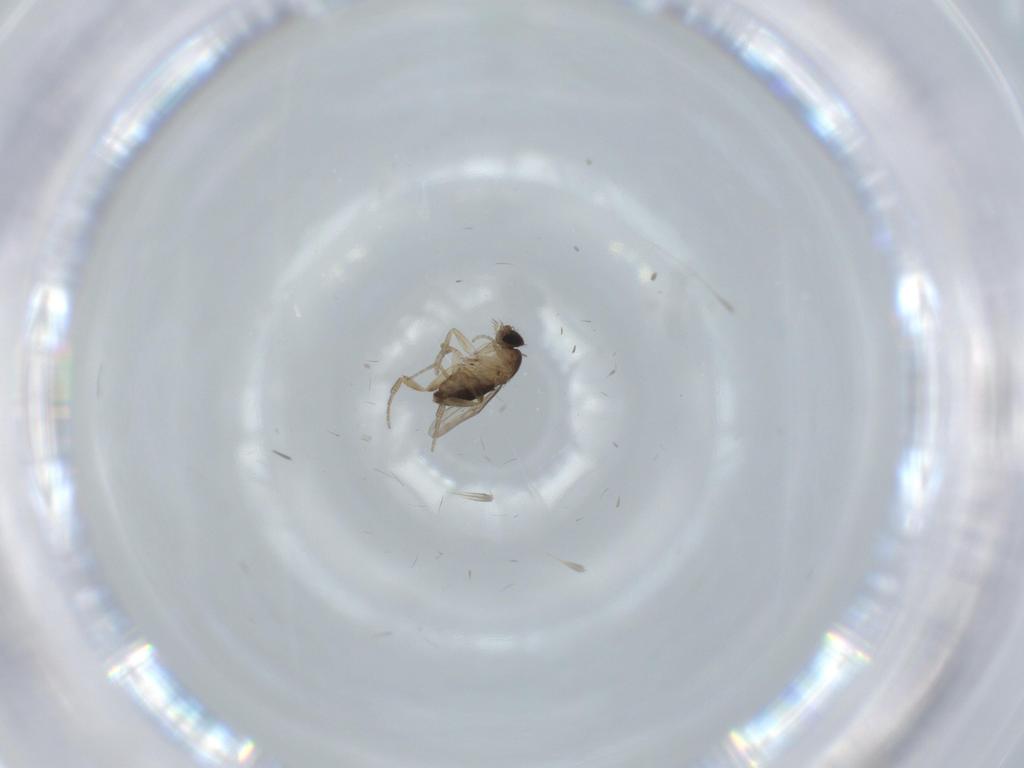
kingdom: Animalia
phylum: Arthropoda
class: Insecta
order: Diptera
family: Phoridae
